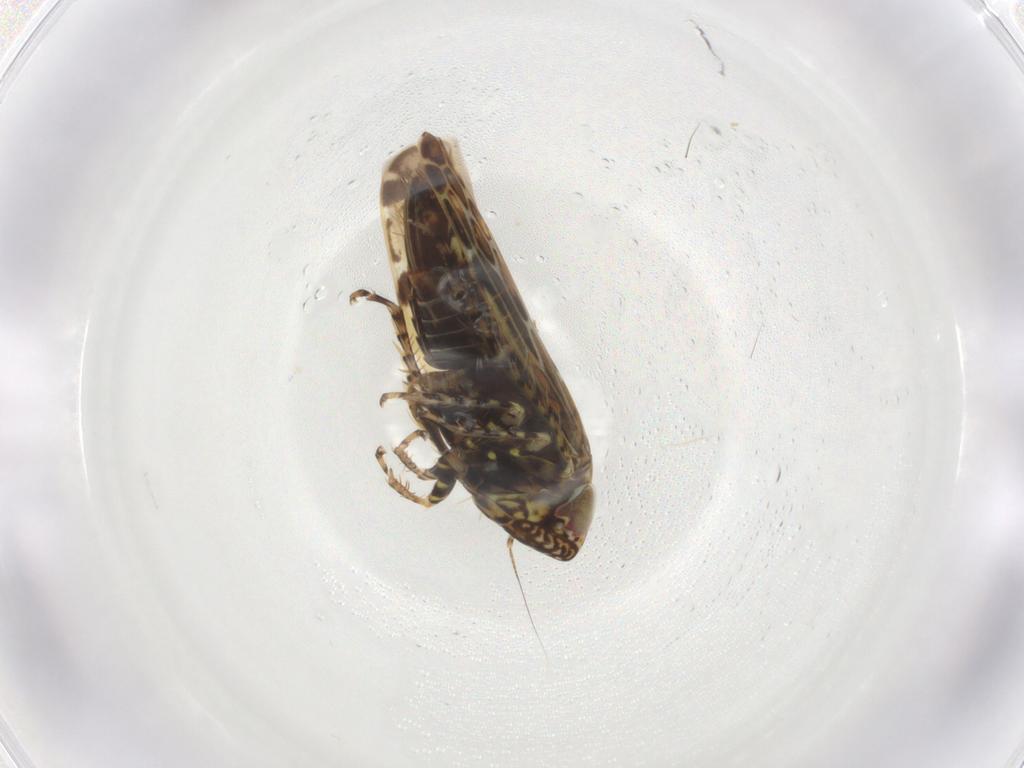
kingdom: Animalia
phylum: Arthropoda
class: Insecta
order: Hemiptera
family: Cicadellidae
